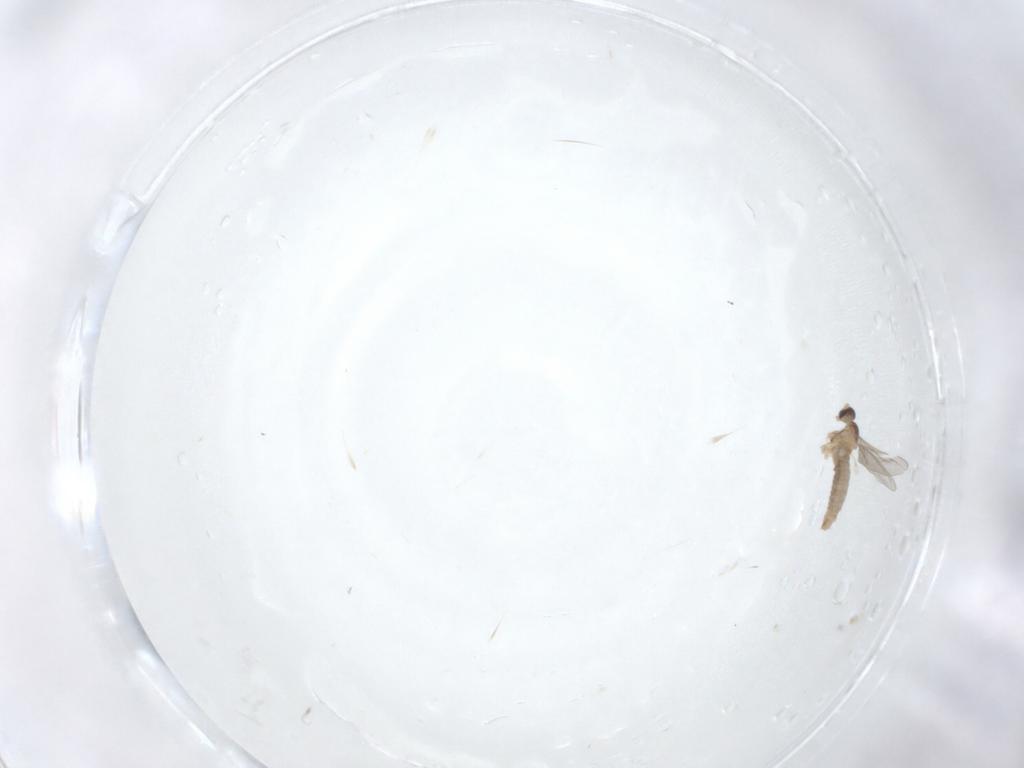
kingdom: Animalia
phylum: Arthropoda
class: Insecta
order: Diptera
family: Cecidomyiidae
